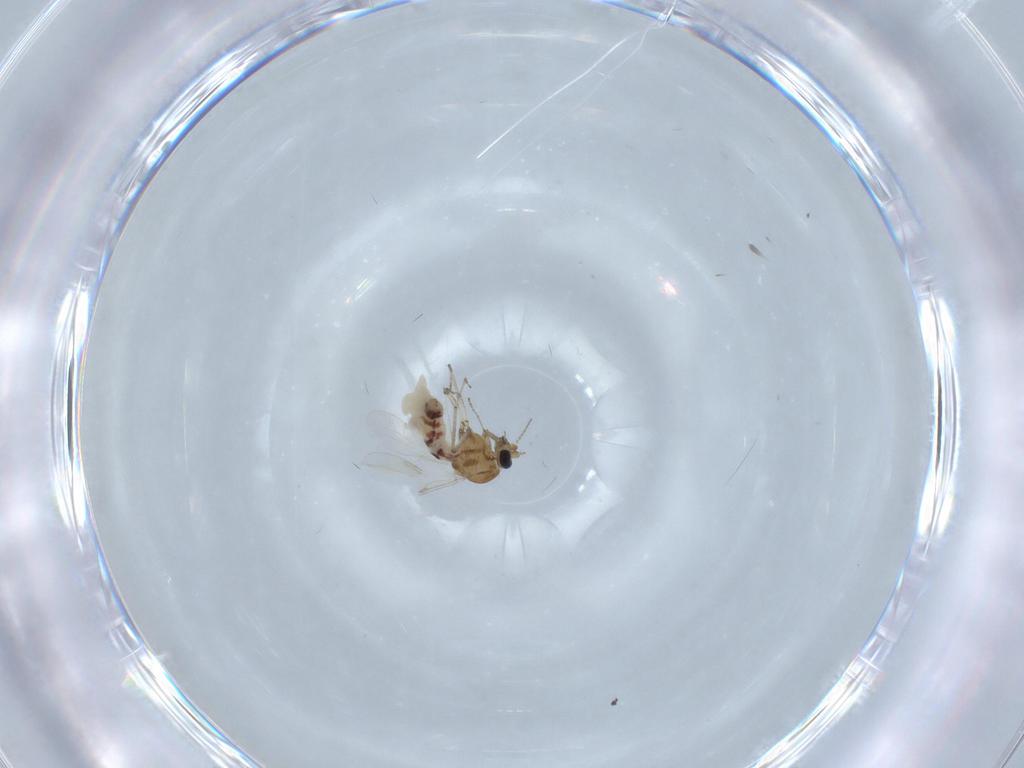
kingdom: Animalia
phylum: Arthropoda
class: Insecta
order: Diptera
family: Ceratopogonidae
